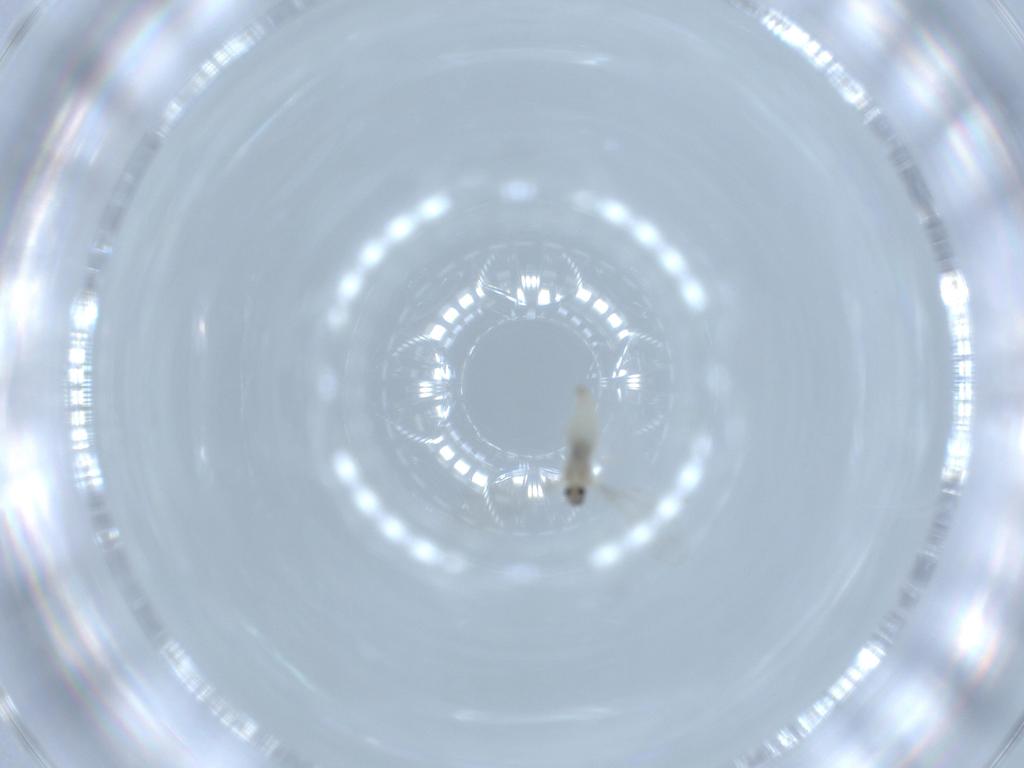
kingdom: Animalia
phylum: Arthropoda
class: Insecta
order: Diptera
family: Cecidomyiidae
